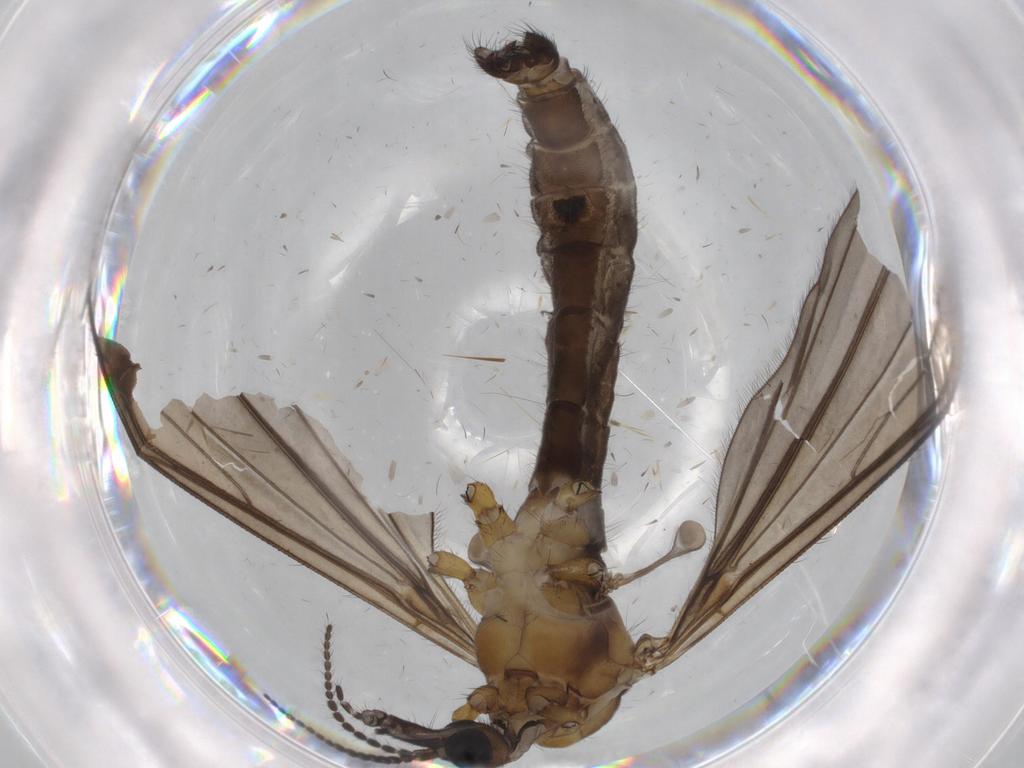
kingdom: Animalia
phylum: Arthropoda
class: Insecta
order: Diptera
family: Limoniidae
